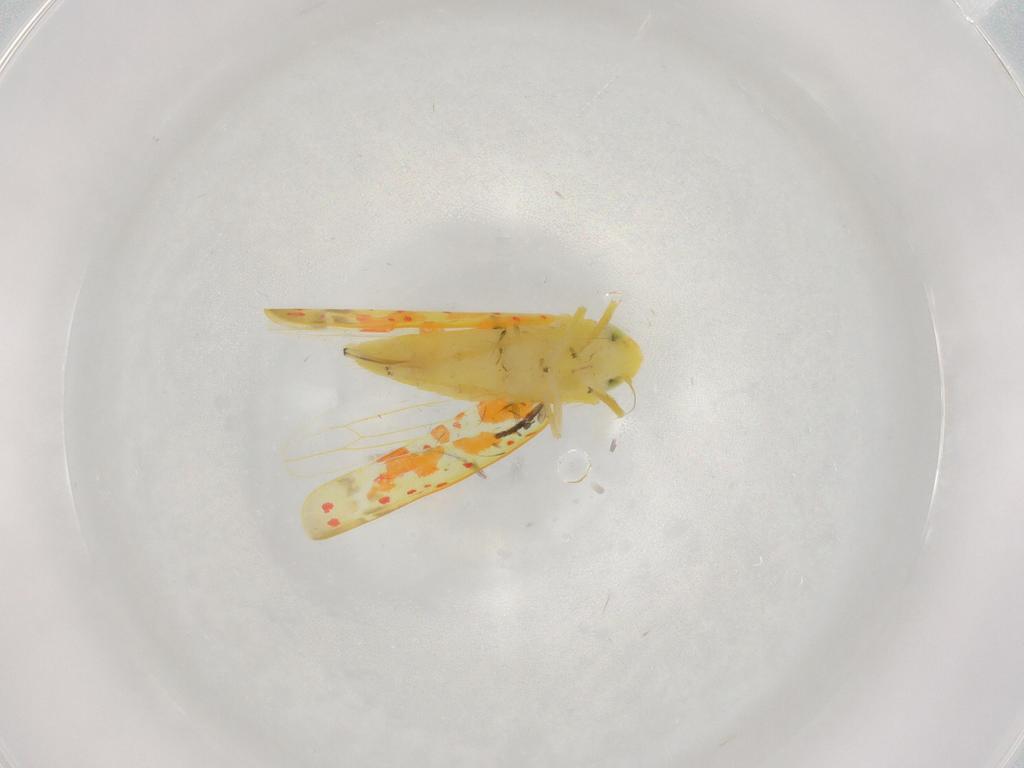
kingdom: Animalia
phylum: Arthropoda
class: Insecta
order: Hemiptera
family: Cicadellidae
